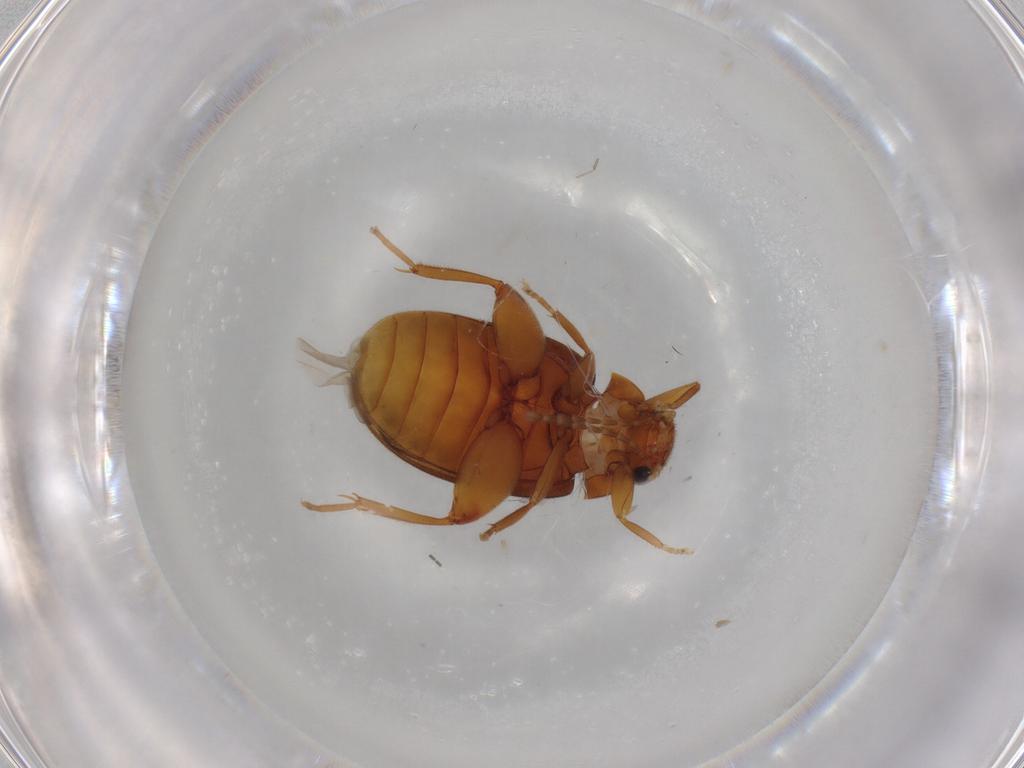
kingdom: Animalia
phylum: Arthropoda
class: Insecta
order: Coleoptera
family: Scirtidae
